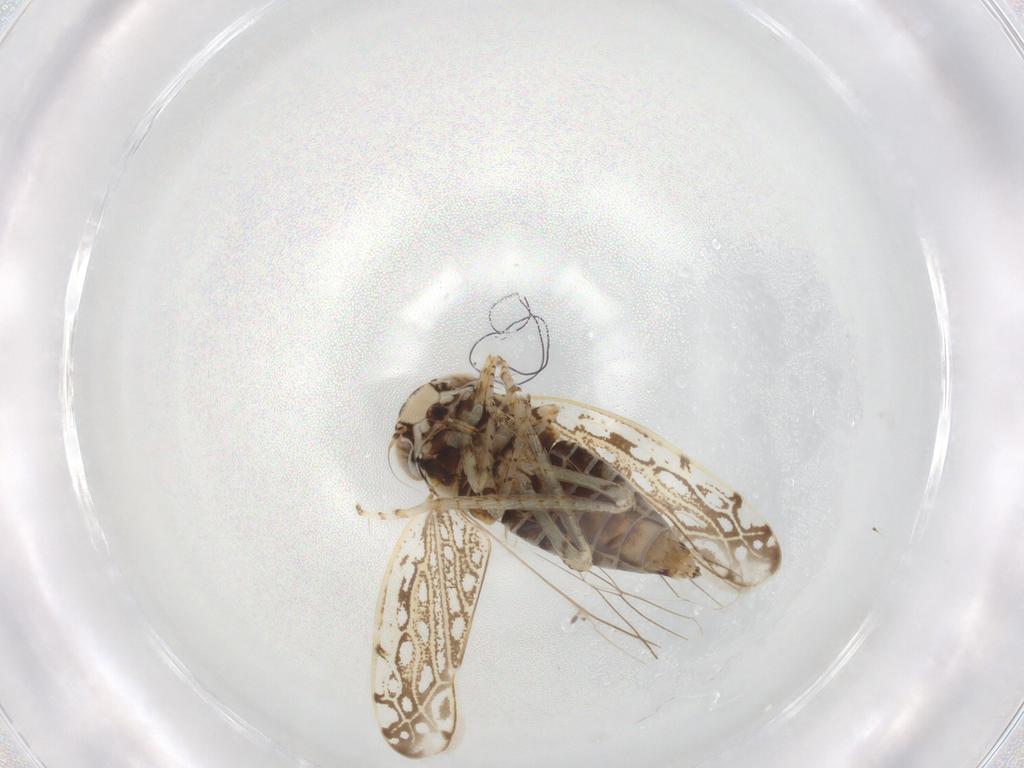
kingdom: Animalia
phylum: Arthropoda
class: Insecta
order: Hemiptera
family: Cicadellidae
